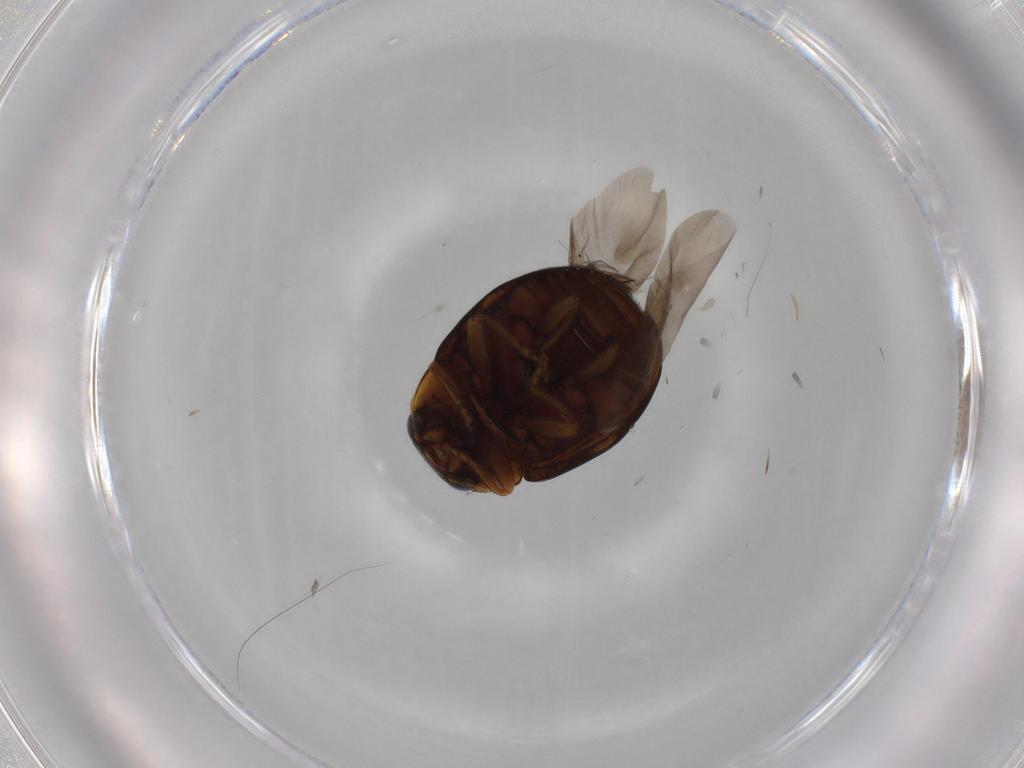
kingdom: Animalia
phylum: Arthropoda
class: Insecta
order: Coleoptera
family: Mordellidae
